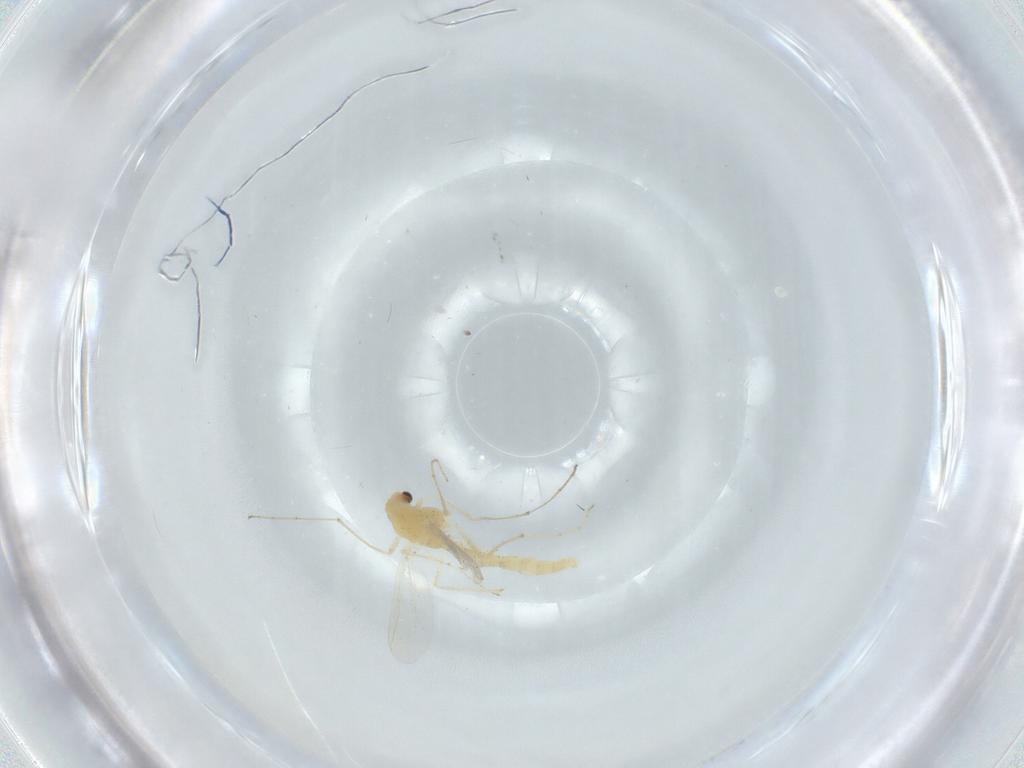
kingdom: Animalia
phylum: Arthropoda
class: Insecta
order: Diptera
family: Chironomidae
